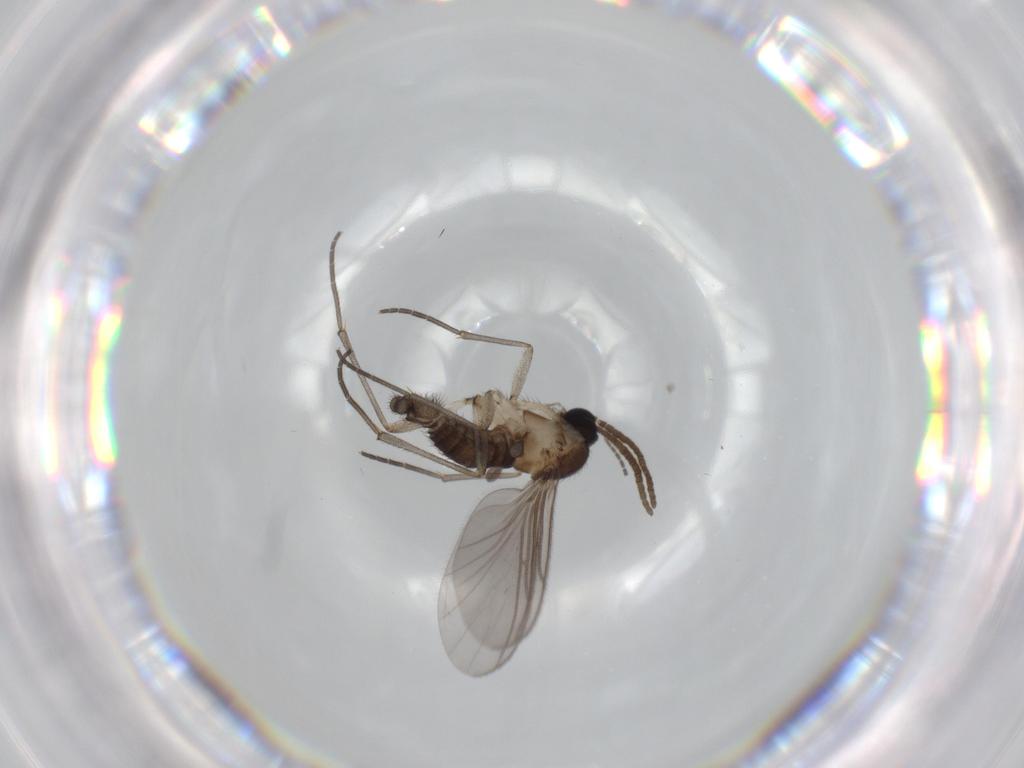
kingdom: Animalia
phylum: Arthropoda
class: Insecta
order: Diptera
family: Sciaridae
